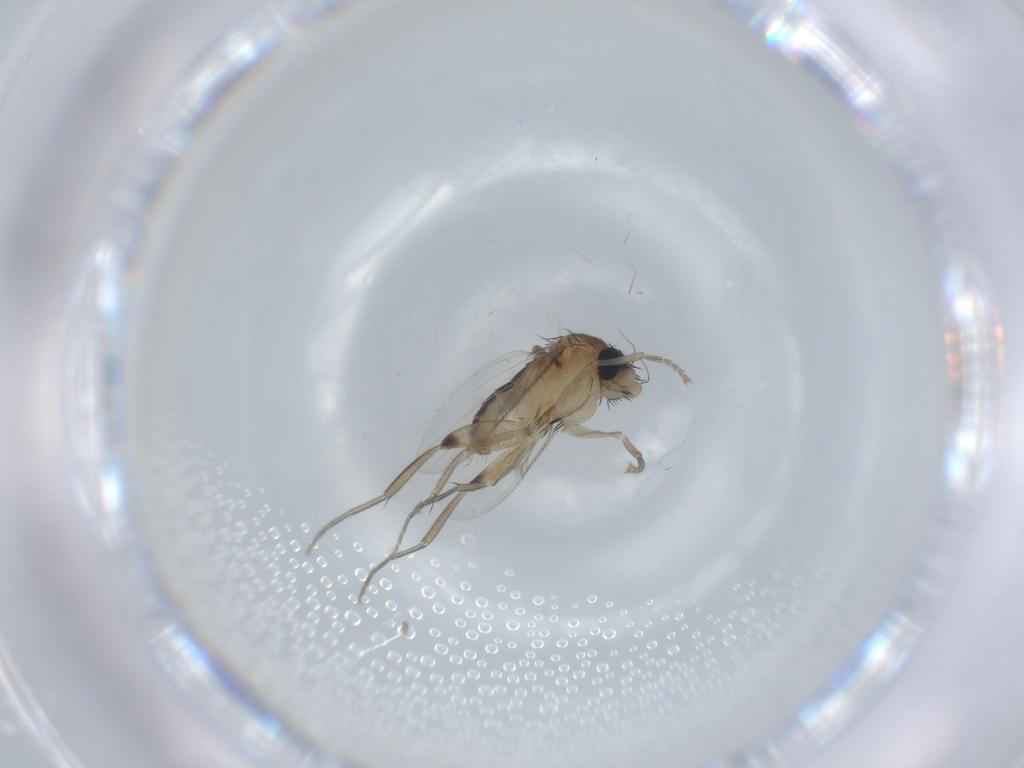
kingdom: Animalia
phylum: Arthropoda
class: Insecta
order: Diptera
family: Phoridae
